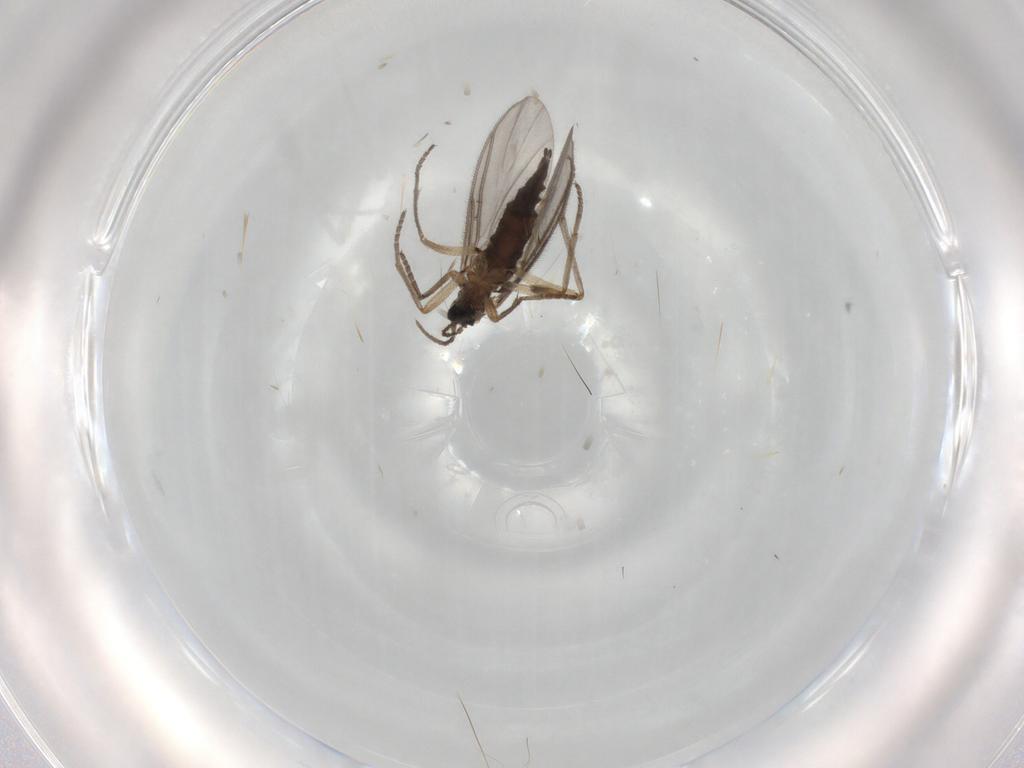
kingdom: Animalia
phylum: Arthropoda
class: Insecta
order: Diptera
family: Sciaridae
